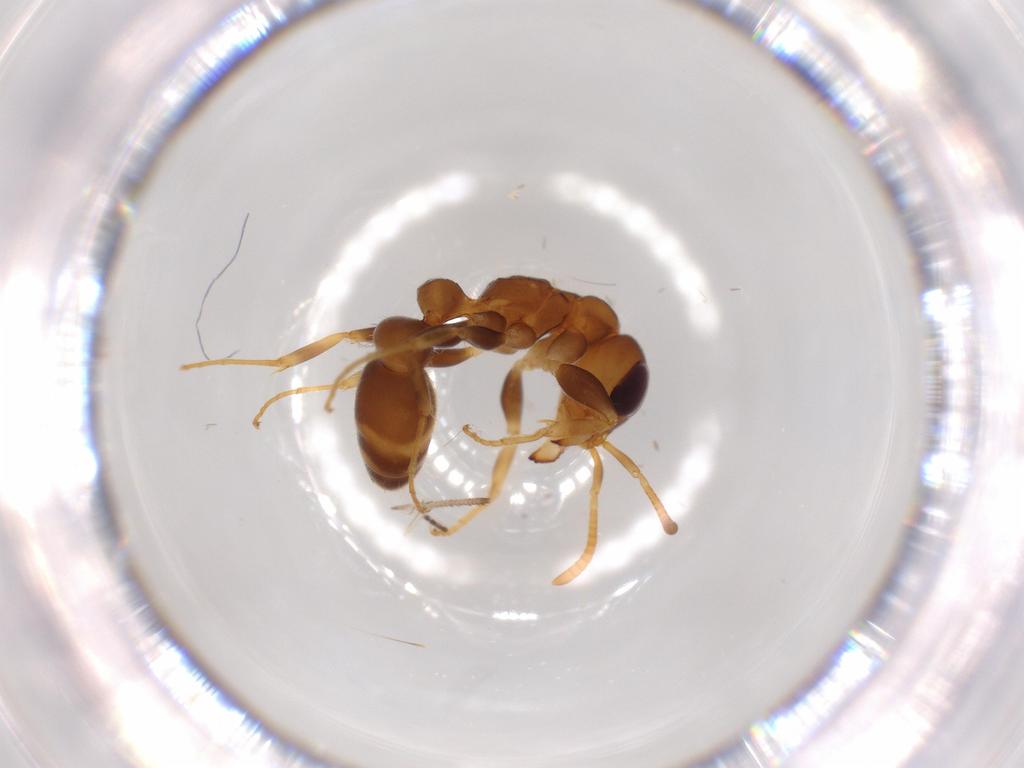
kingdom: Animalia
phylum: Arthropoda
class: Insecta
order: Hymenoptera
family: Formicidae
